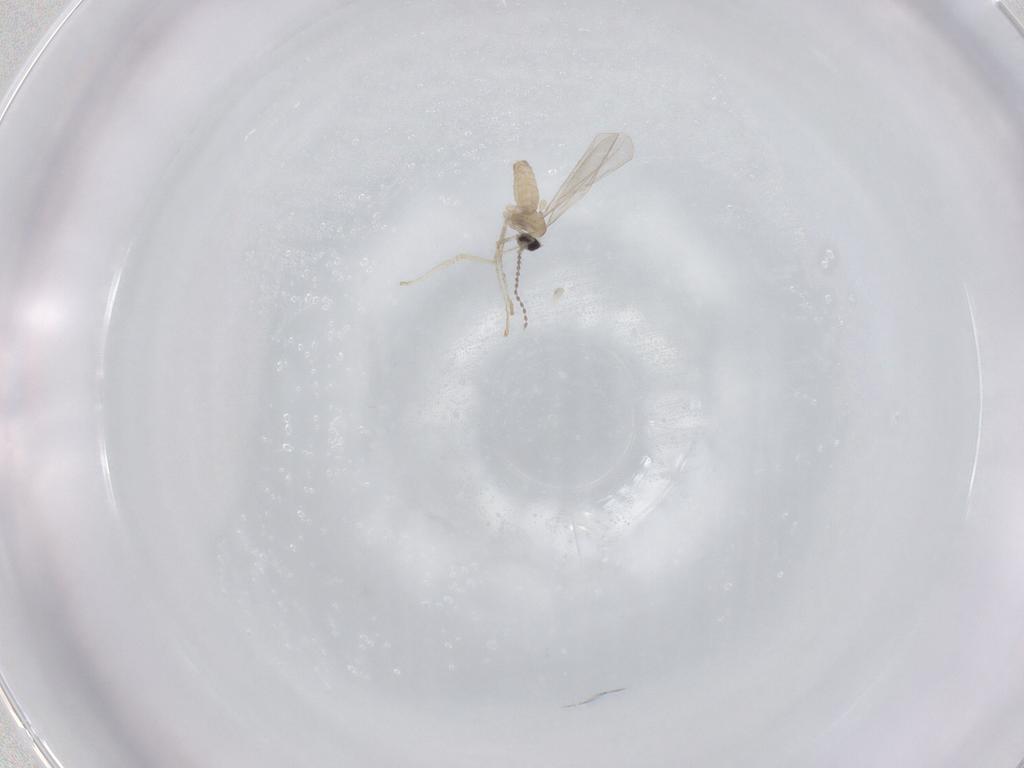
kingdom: Animalia
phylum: Arthropoda
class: Insecta
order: Diptera
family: Cecidomyiidae
